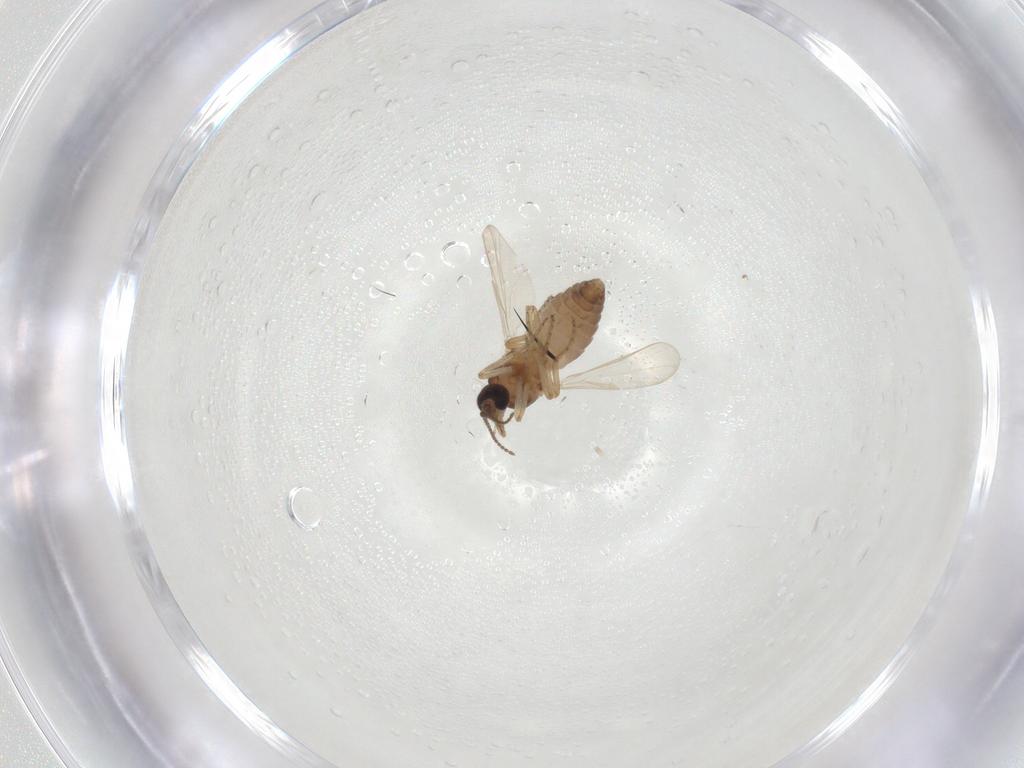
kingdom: Animalia
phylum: Arthropoda
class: Insecta
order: Diptera
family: Ceratopogonidae
